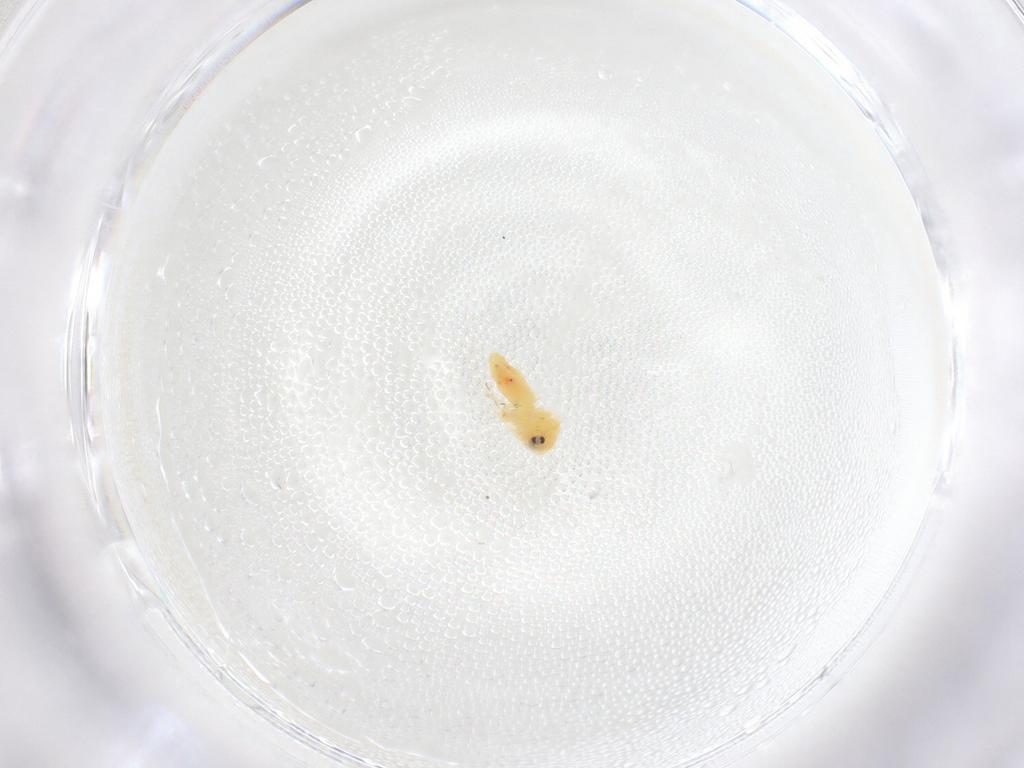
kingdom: Animalia
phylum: Arthropoda
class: Insecta
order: Hemiptera
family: Aleyrodidae
